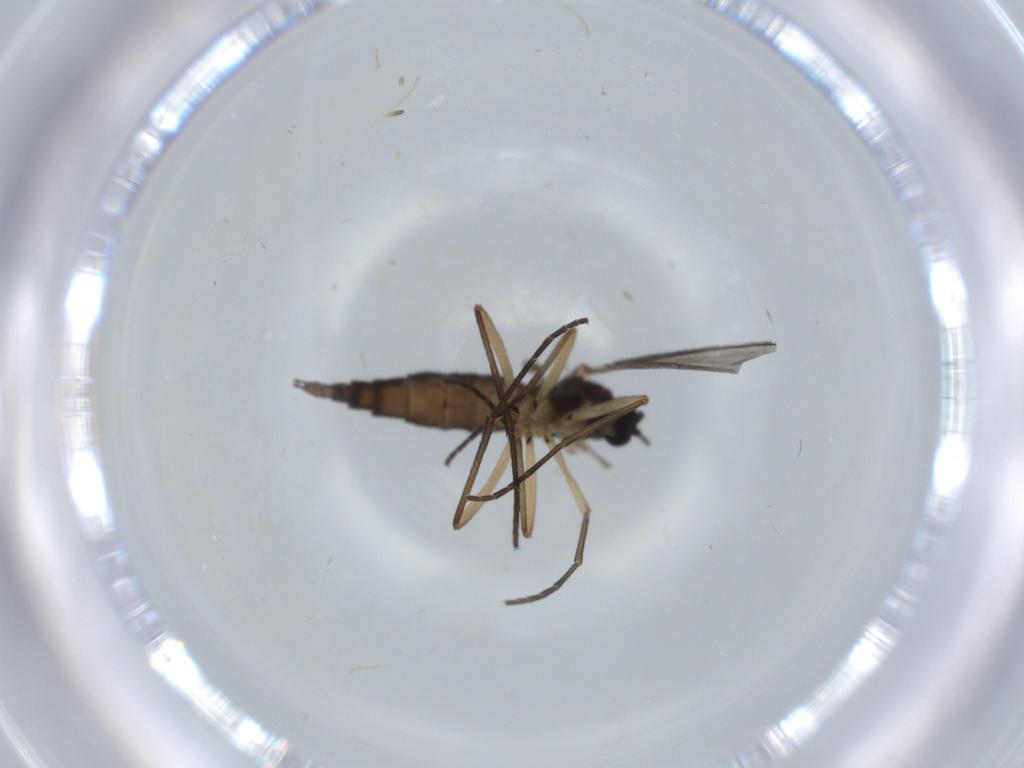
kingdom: Animalia
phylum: Arthropoda
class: Insecta
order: Diptera
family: Sciaridae
